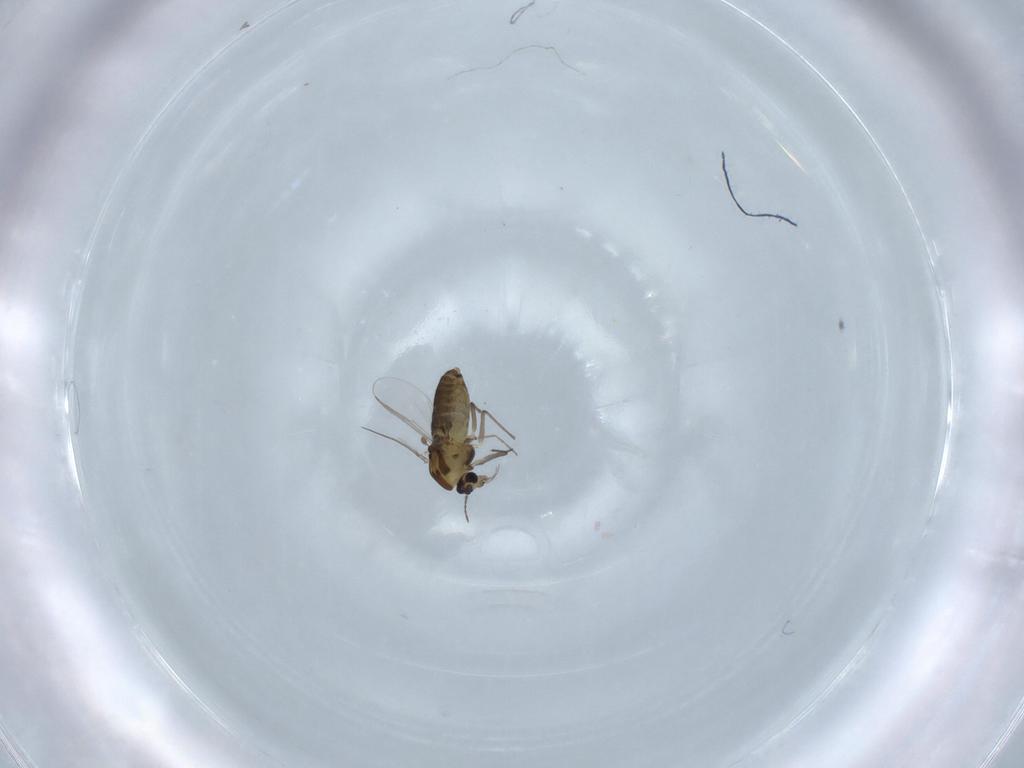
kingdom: Animalia
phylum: Arthropoda
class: Insecta
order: Diptera
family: Chironomidae
